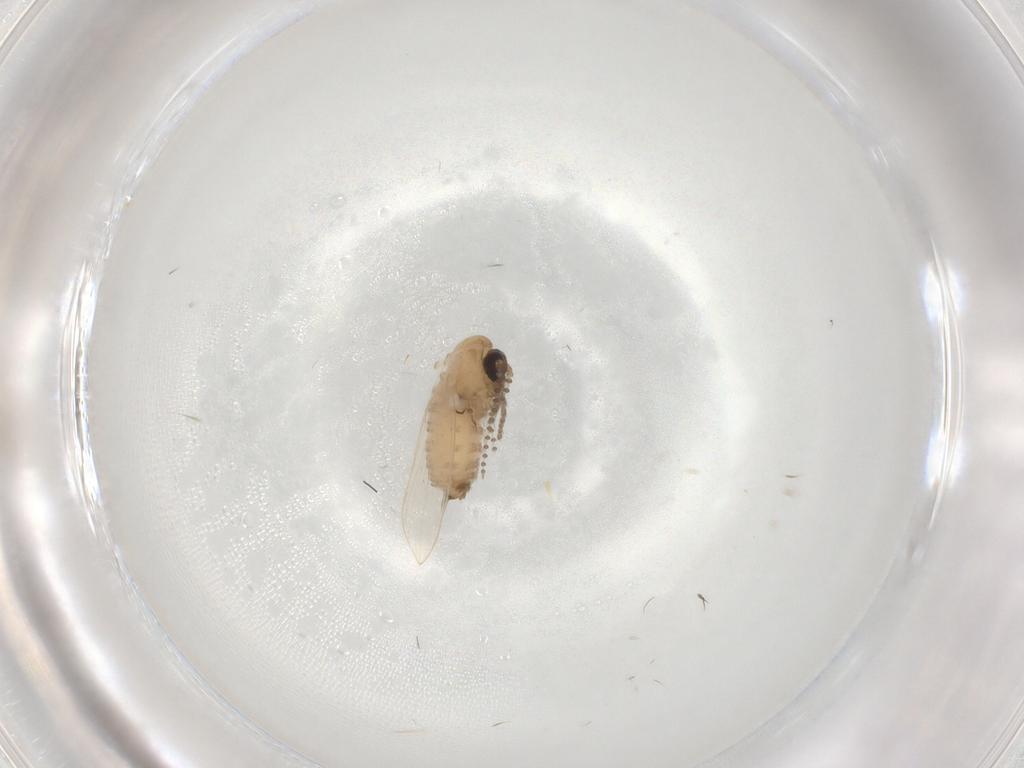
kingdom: Animalia
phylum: Arthropoda
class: Insecta
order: Diptera
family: Psychodidae
